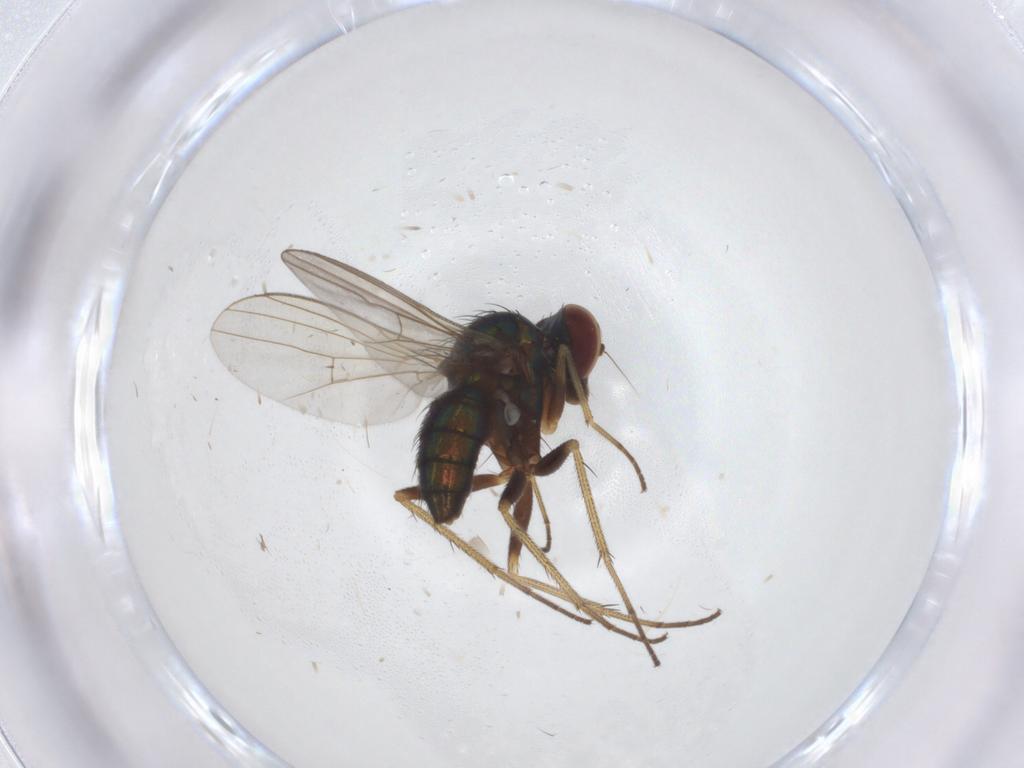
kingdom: Animalia
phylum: Arthropoda
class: Insecta
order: Diptera
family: Dolichopodidae
